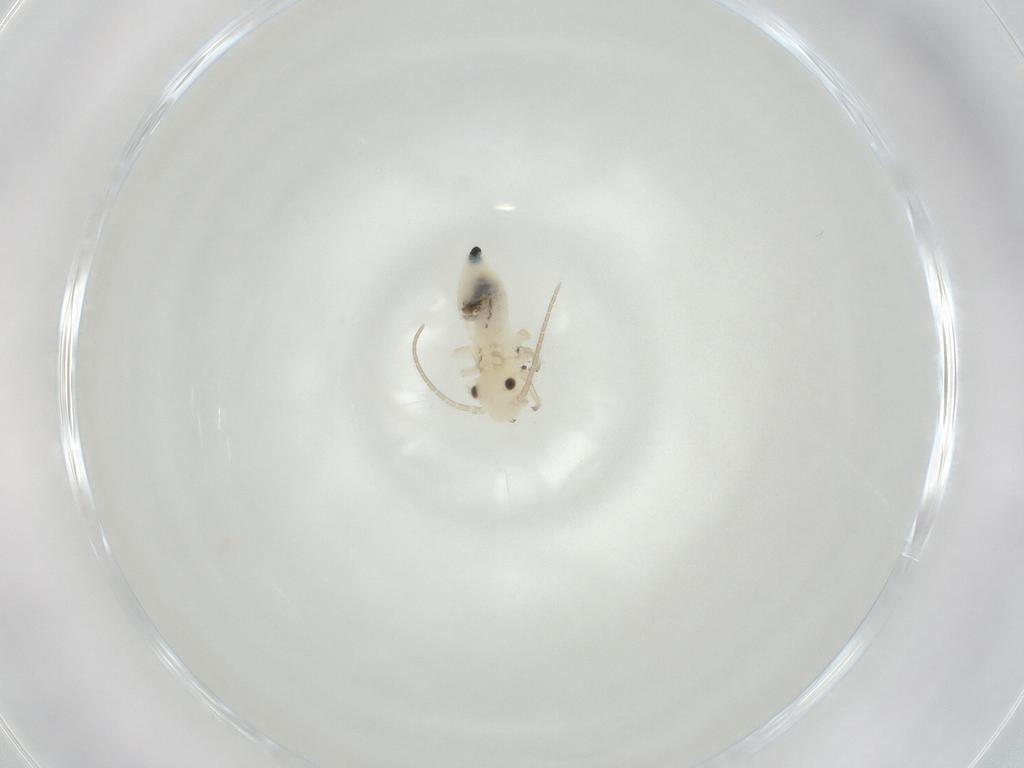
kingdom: Animalia
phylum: Arthropoda
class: Insecta
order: Psocodea
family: Caeciliusidae
